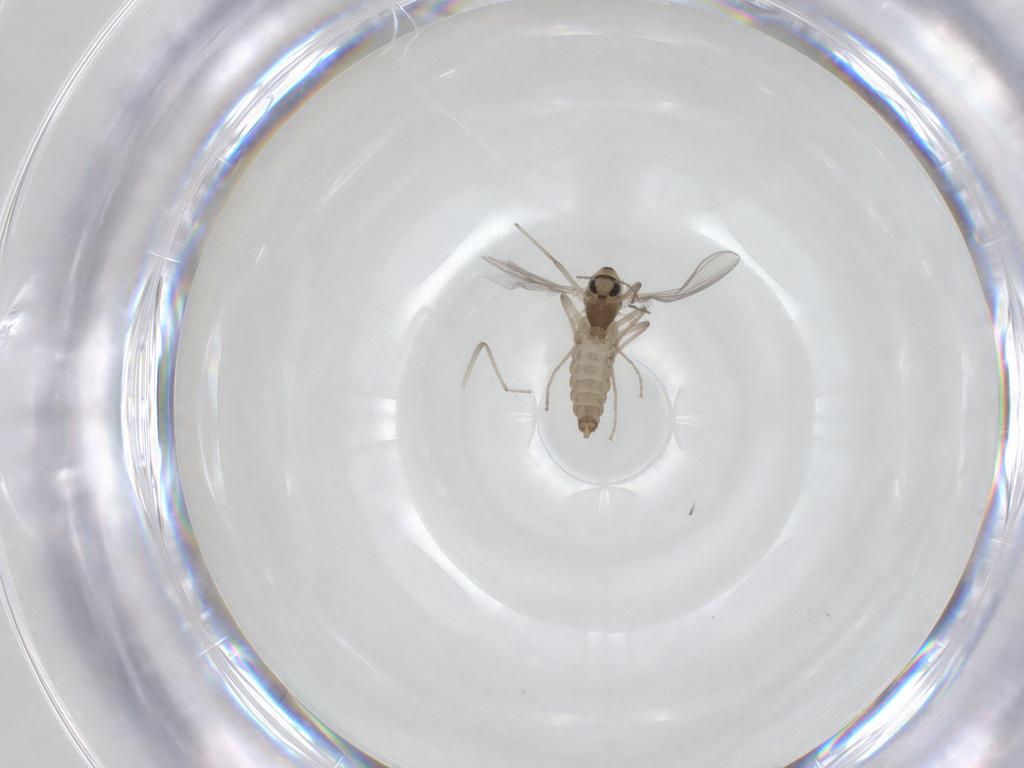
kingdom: Animalia
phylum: Arthropoda
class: Insecta
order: Diptera
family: Chironomidae
